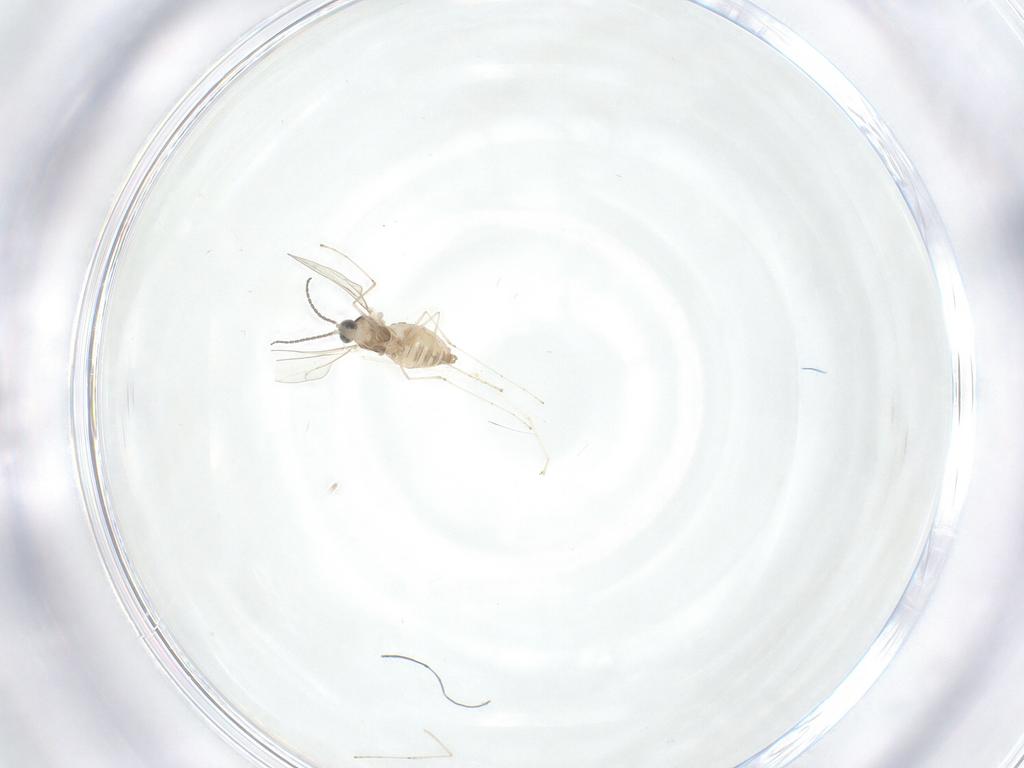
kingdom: Animalia
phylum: Arthropoda
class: Insecta
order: Diptera
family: Cecidomyiidae
